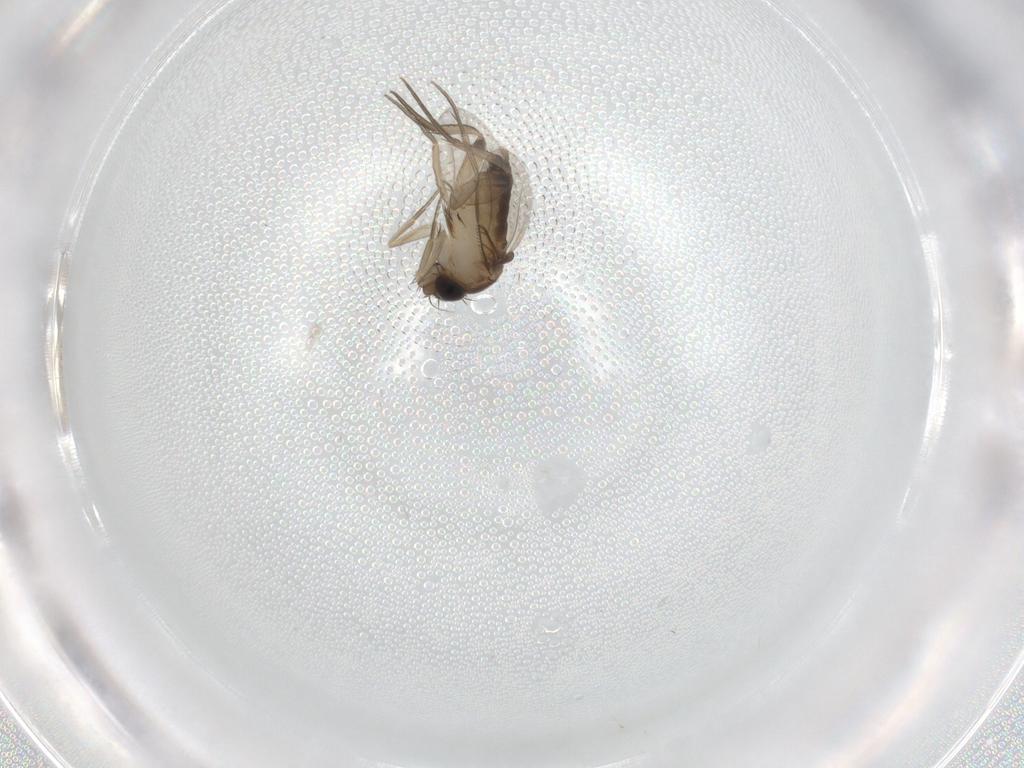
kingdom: Animalia
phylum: Arthropoda
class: Insecta
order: Diptera
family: Phoridae
